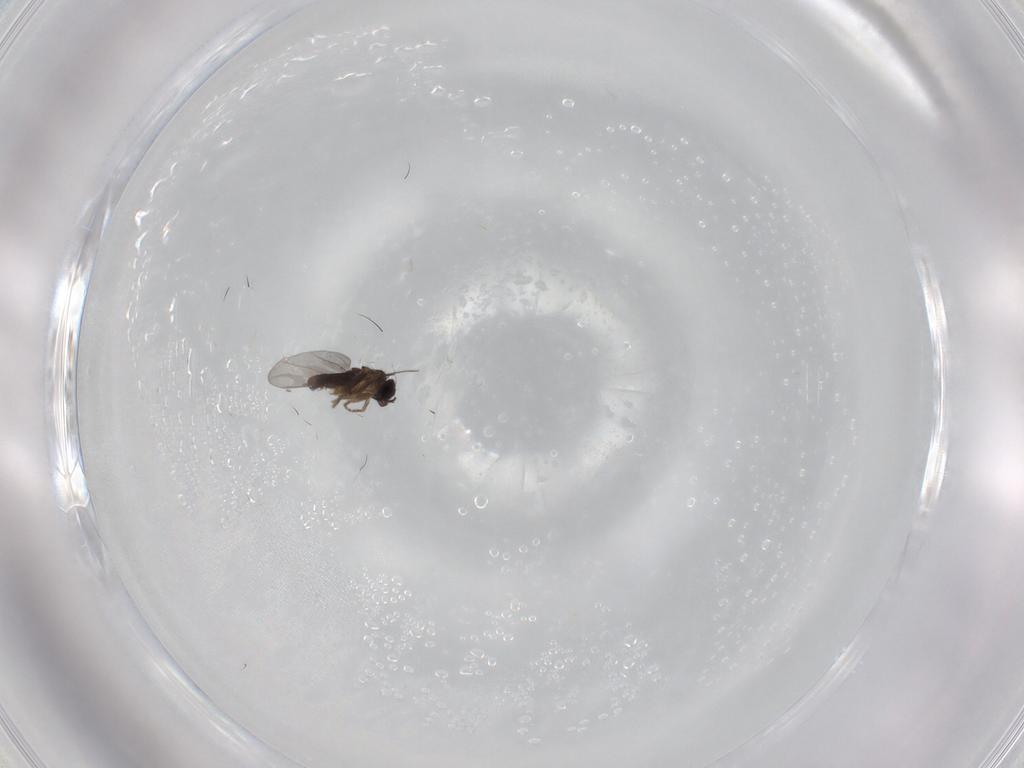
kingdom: Animalia
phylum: Arthropoda
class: Insecta
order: Diptera
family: Chironomidae
